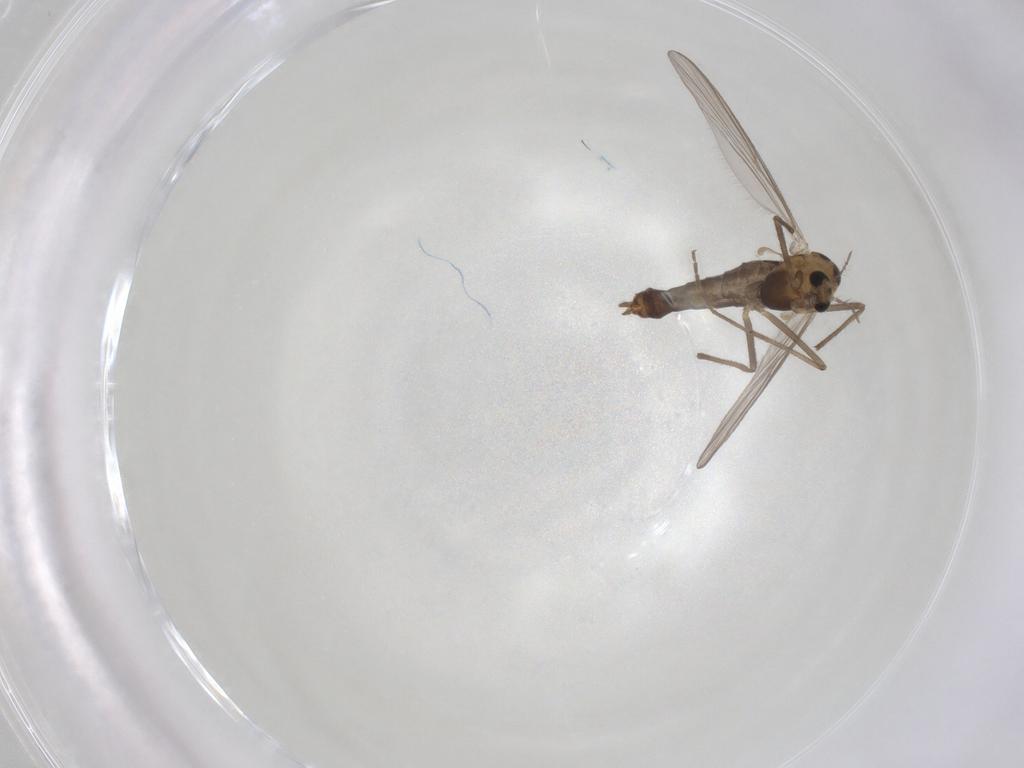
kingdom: Animalia
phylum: Arthropoda
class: Insecta
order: Diptera
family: Chironomidae
